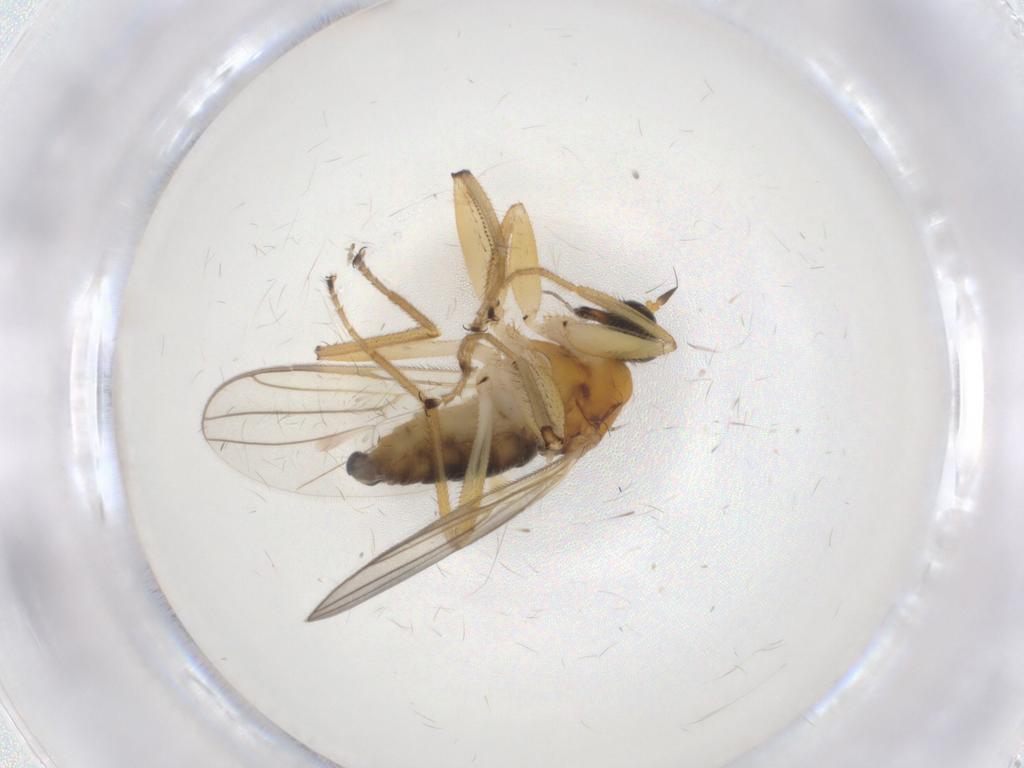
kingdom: Animalia
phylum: Arthropoda
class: Insecta
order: Diptera
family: Hybotidae
